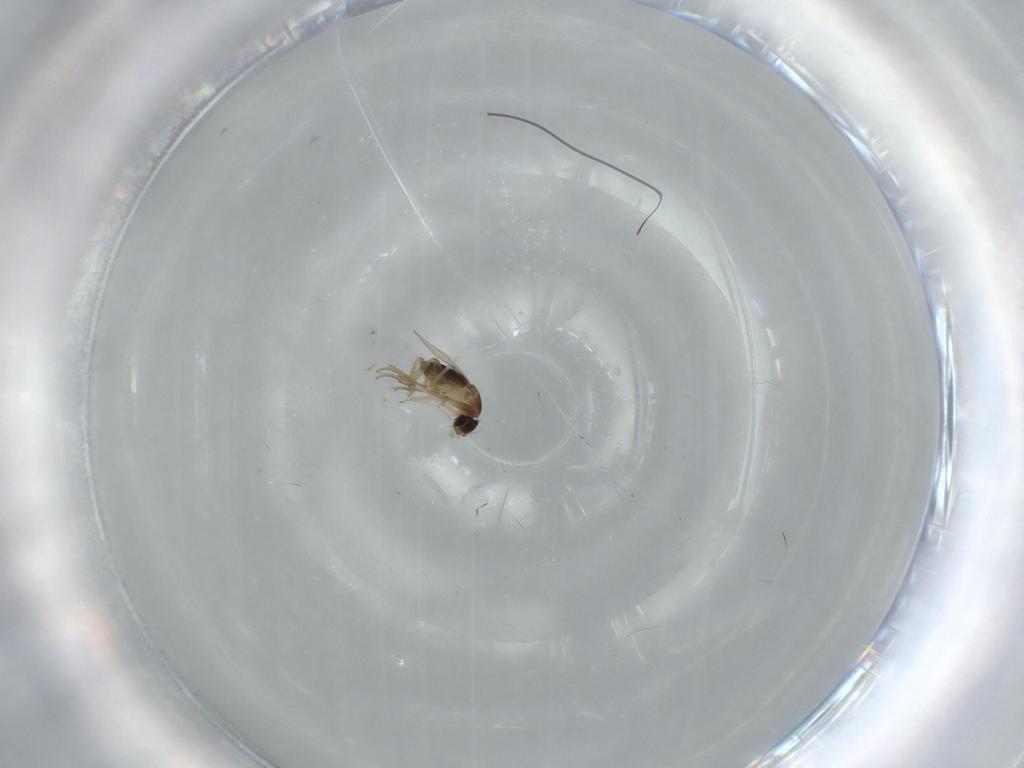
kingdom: Animalia
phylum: Arthropoda
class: Insecta
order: Diptera
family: Phoridae
